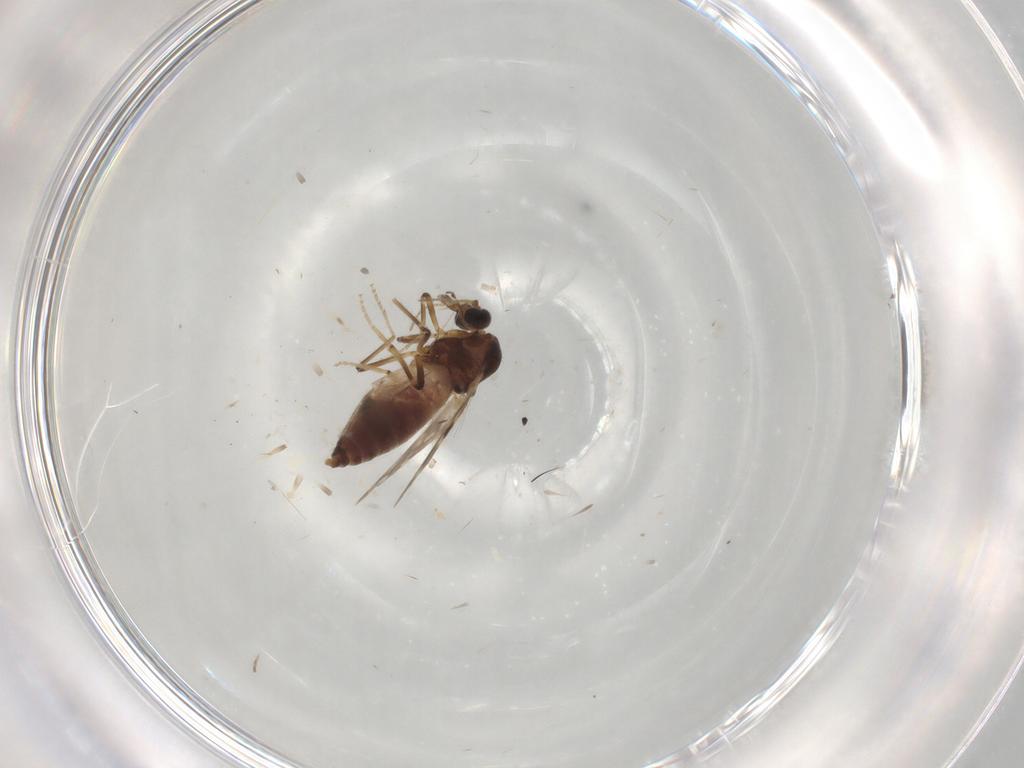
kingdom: Animalia
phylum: Arthropoda
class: Insecta
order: Diptera
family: Ceratopogonidae
